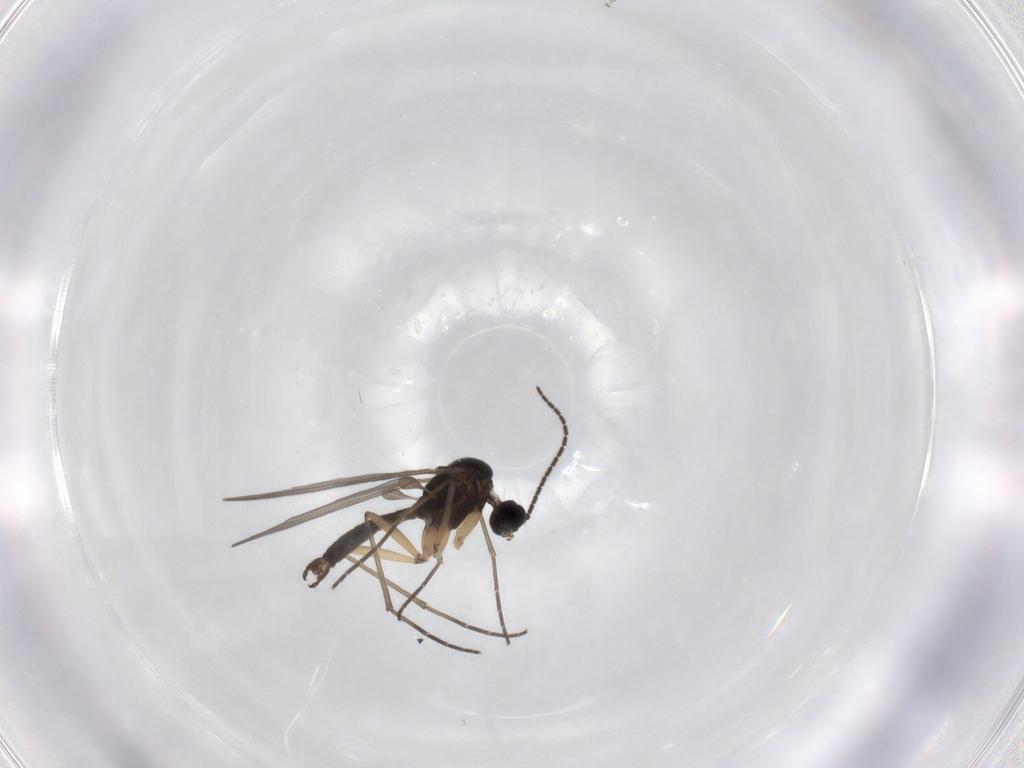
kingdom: Animalia
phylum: Arthropoda
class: Insecta
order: Diptera
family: Sciaridae
